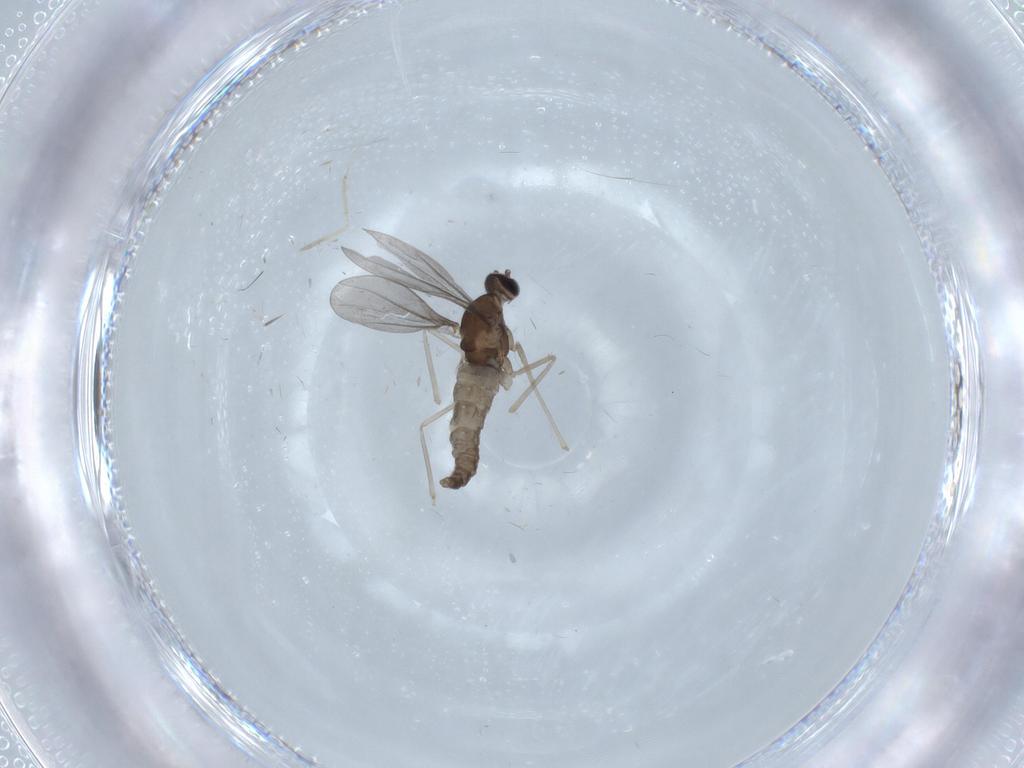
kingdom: Animalia
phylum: Arthropoda
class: Insecta
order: Diptera
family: Cecidomyiidae
